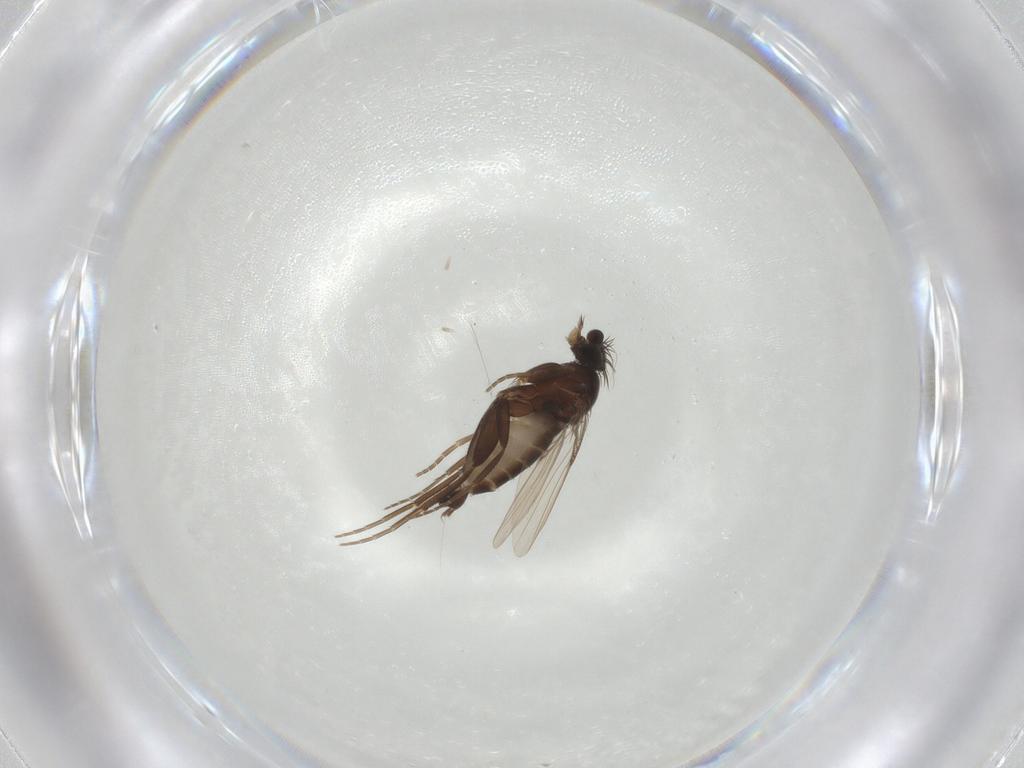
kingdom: Animalia
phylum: Arthropoda
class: Insecta
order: Diptera
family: Phoridae
